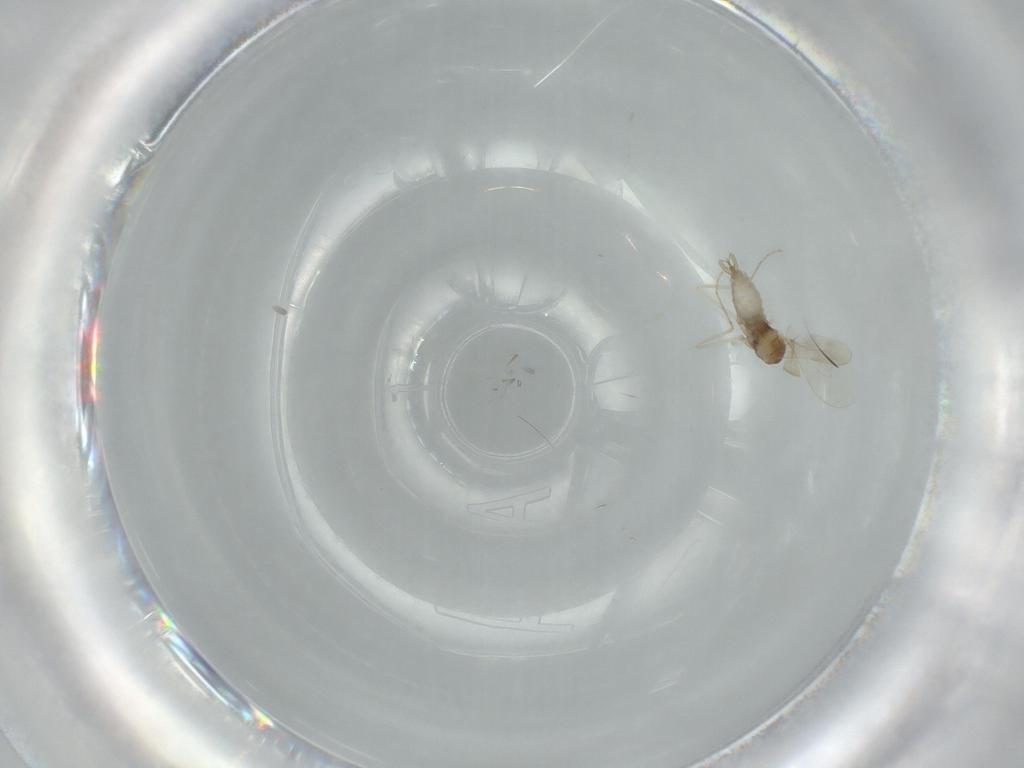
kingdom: Animalia
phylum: Arthropoda
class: Insecta
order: Diptera
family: Cecidomyiidae
